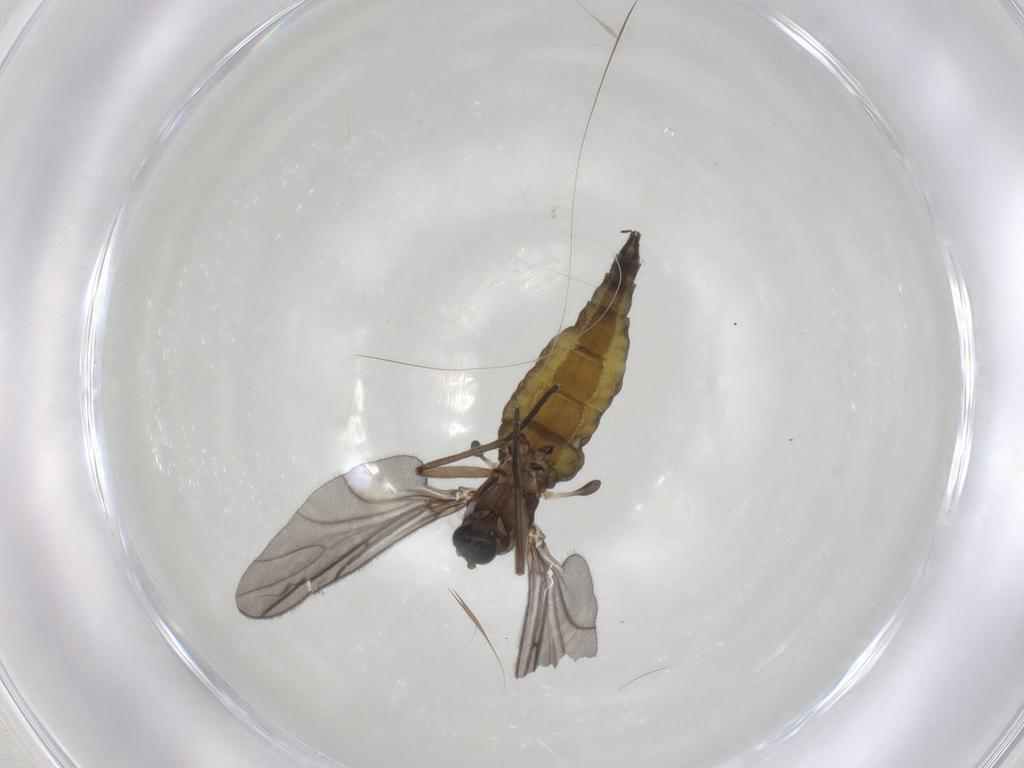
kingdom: Animalia
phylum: Arthropoda
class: Insecta
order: Diptera
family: Sciaridae
